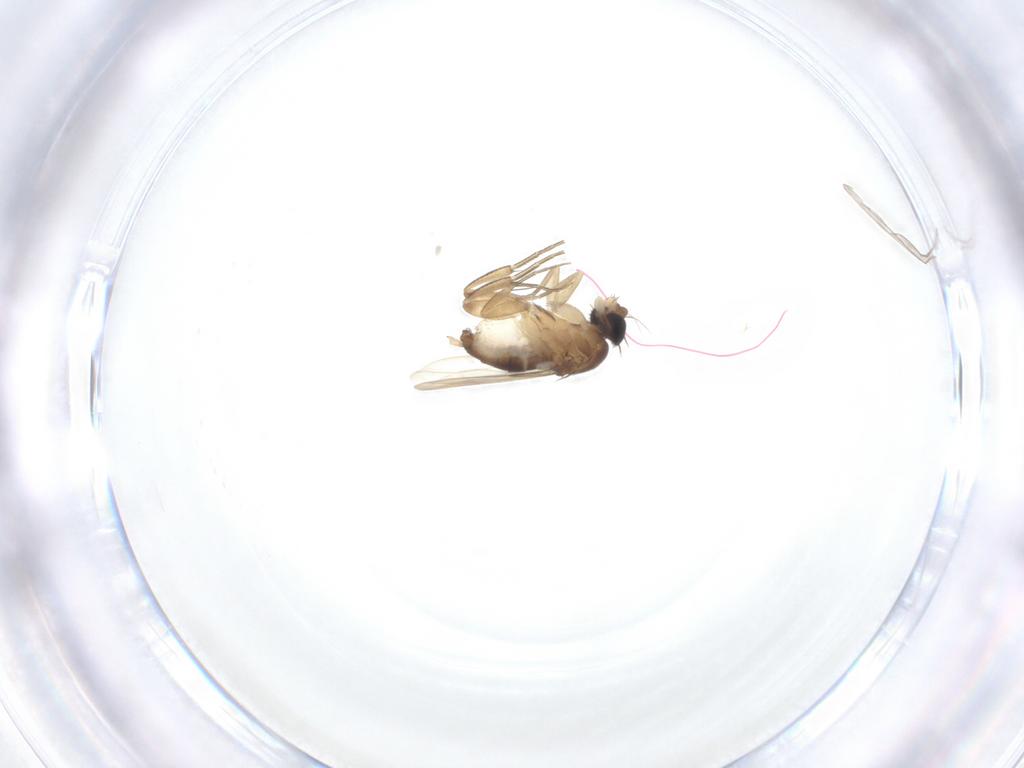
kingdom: Animalia
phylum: Arthropoda
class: Insecta
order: Diptera
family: Phoridae
